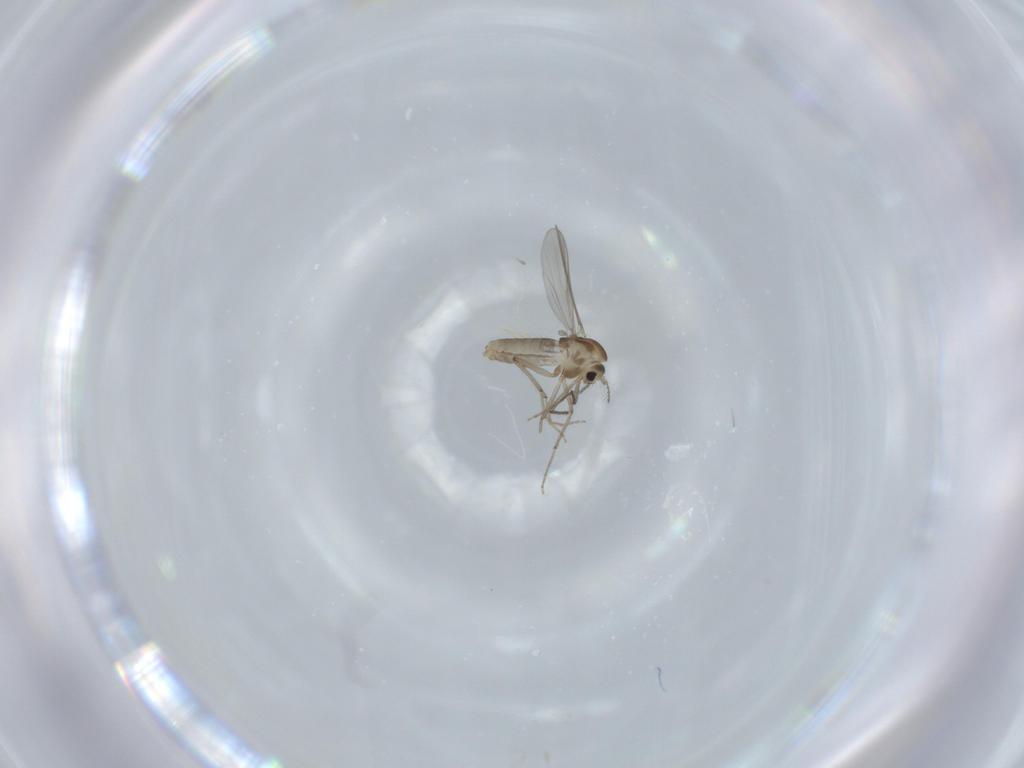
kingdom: Animalia
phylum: Arthropoda
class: Insecta
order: Diptera
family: Chironomidae
